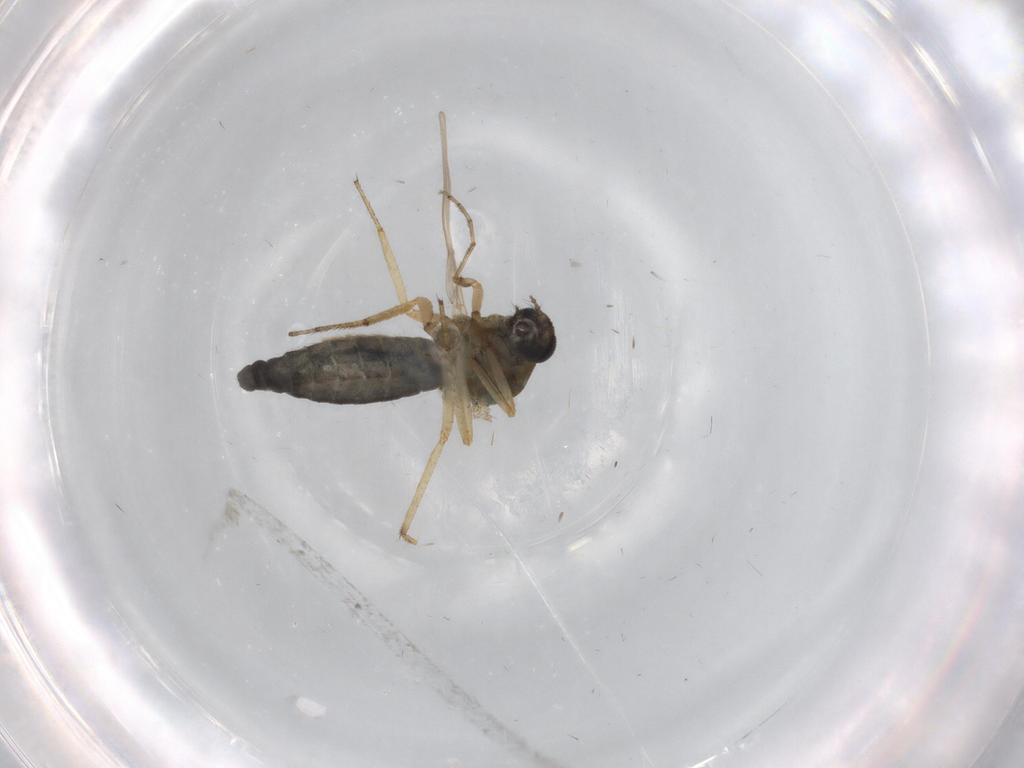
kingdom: Animalia
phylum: Arthropoda
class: Insecta
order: Diptera
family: Ceratopogonidae
